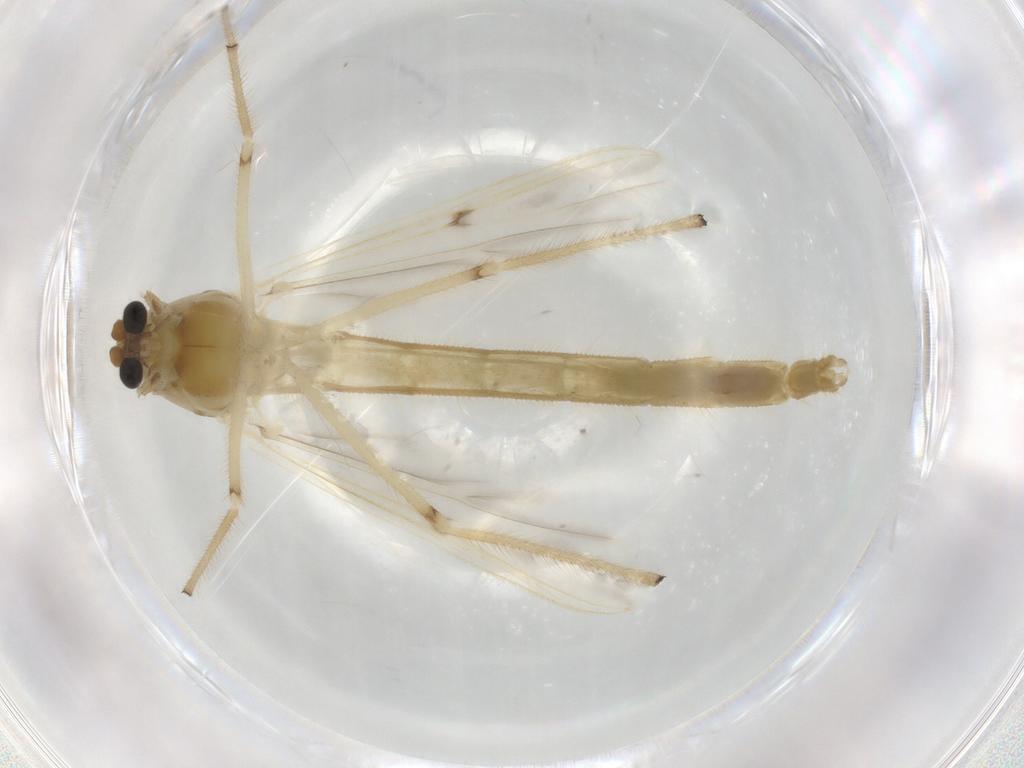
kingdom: Animalia
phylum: Arthropoda
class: Insecta
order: Diptera
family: Chironomidae
